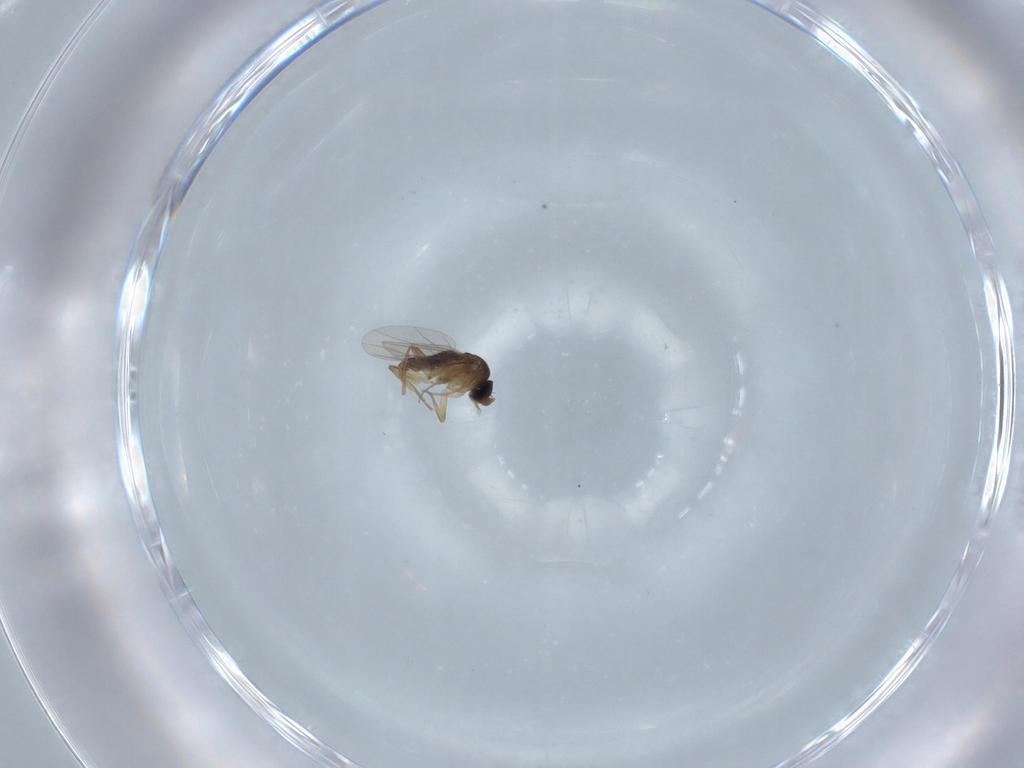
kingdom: Animalia
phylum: Arthropoda
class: Insecta
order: Diptera
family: Phoridae
